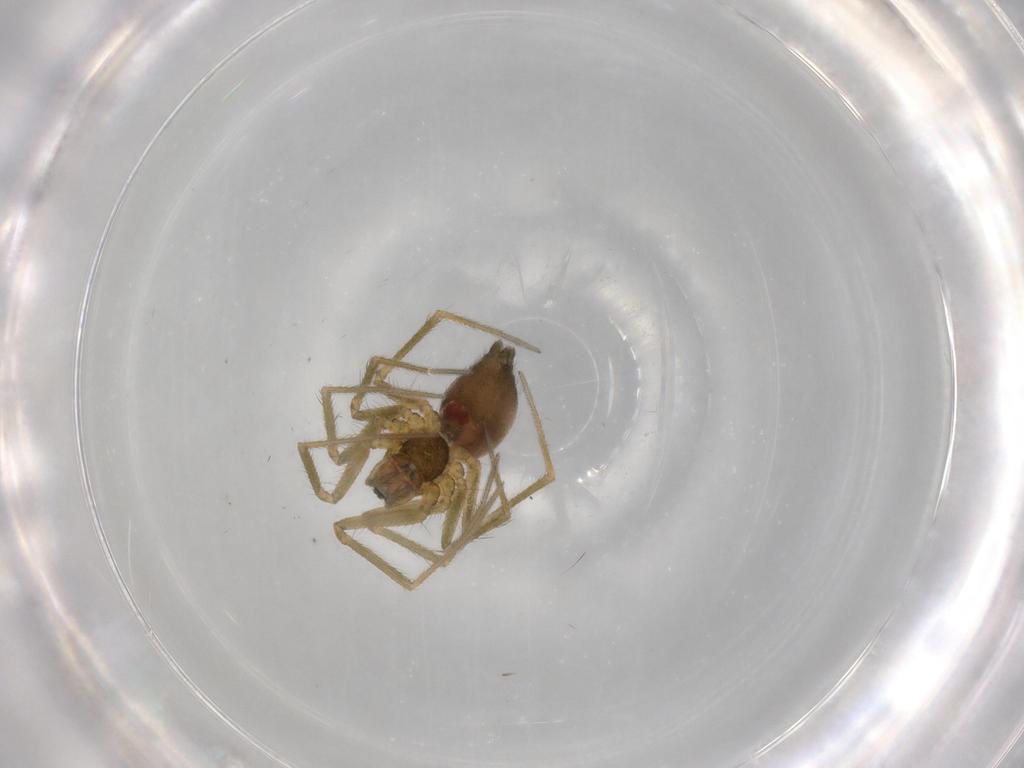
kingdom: Animalia
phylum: Arthropoda
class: Arachnida
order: Araneae
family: Linyphiidae
